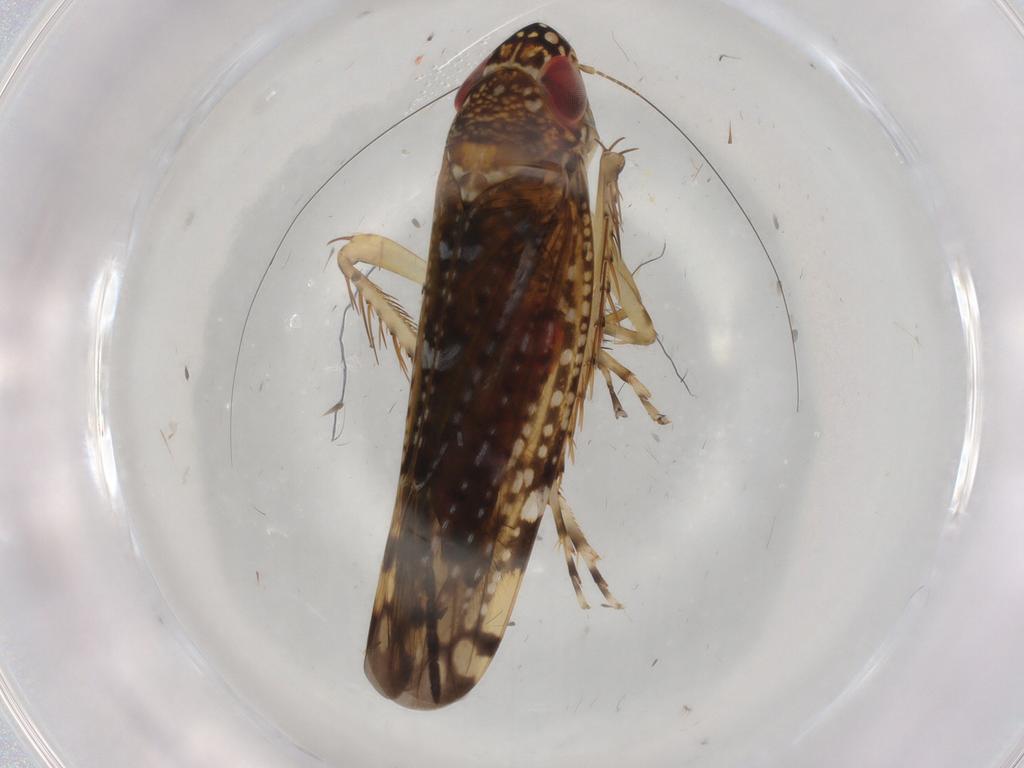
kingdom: Animalia
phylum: Arthropoda
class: Insecta
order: Hemiptera
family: Cicadellidae
